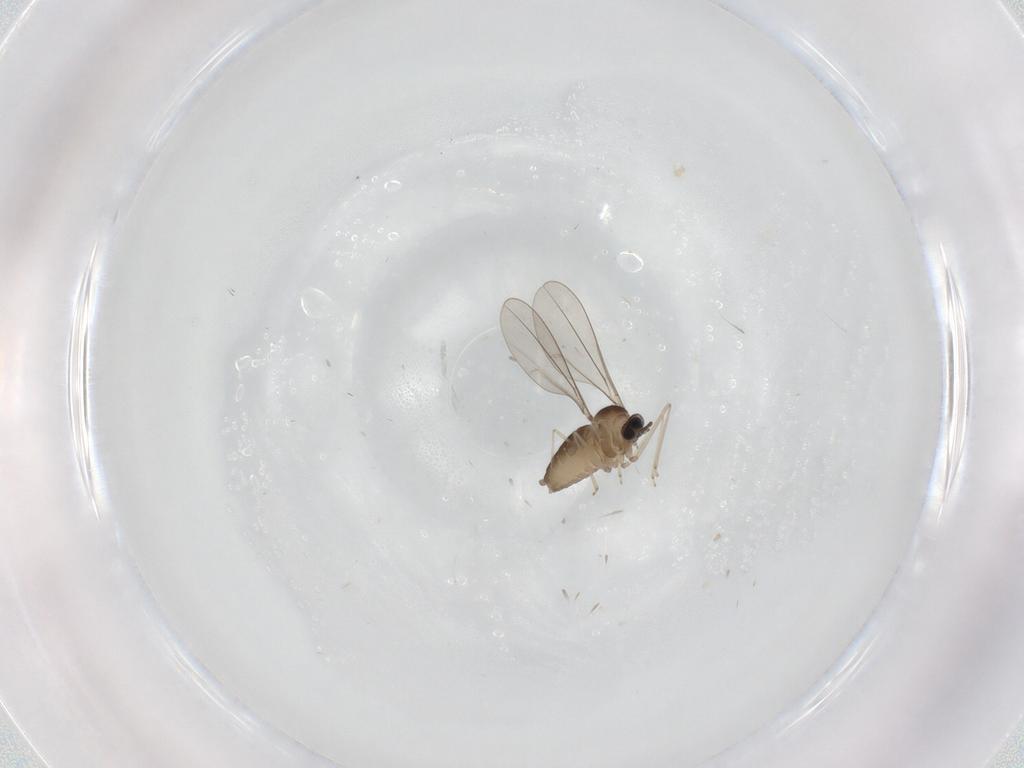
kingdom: Animalia
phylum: Arthropoda
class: Insecta
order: Diptera
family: Cecidomyiidae
